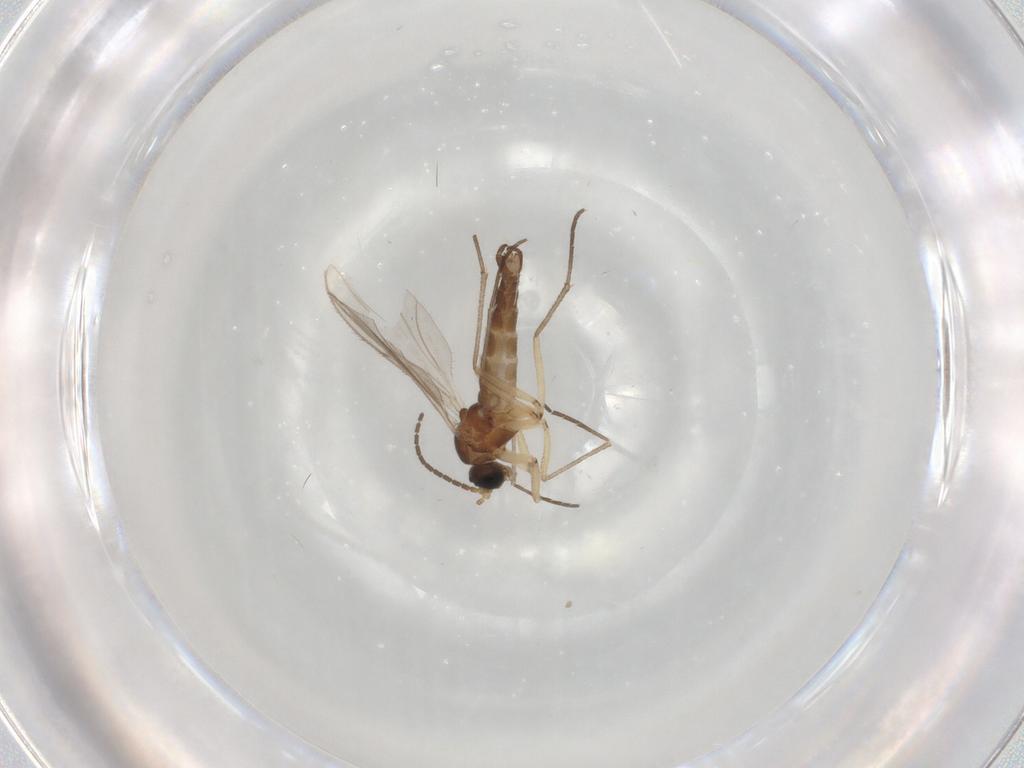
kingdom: Animalia
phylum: Arthropoda
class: Insecta
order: Diptera
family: Sciaridae
